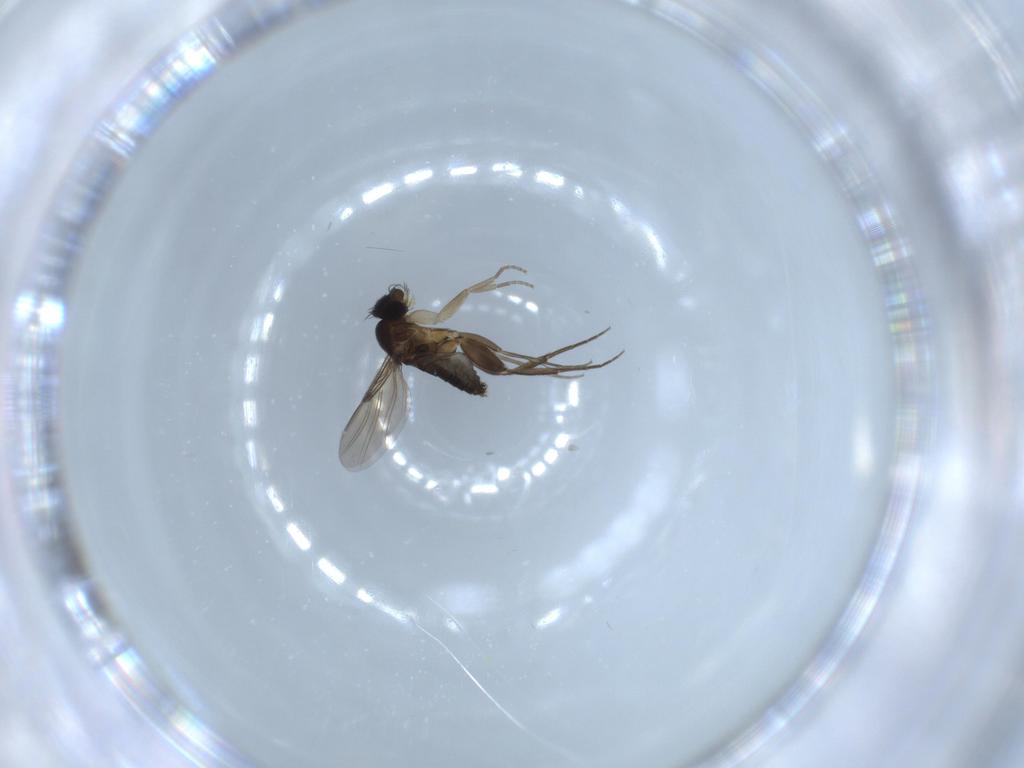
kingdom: Animalia
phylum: Arthropoda
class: Insecta
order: Diptera
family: Phoridae
